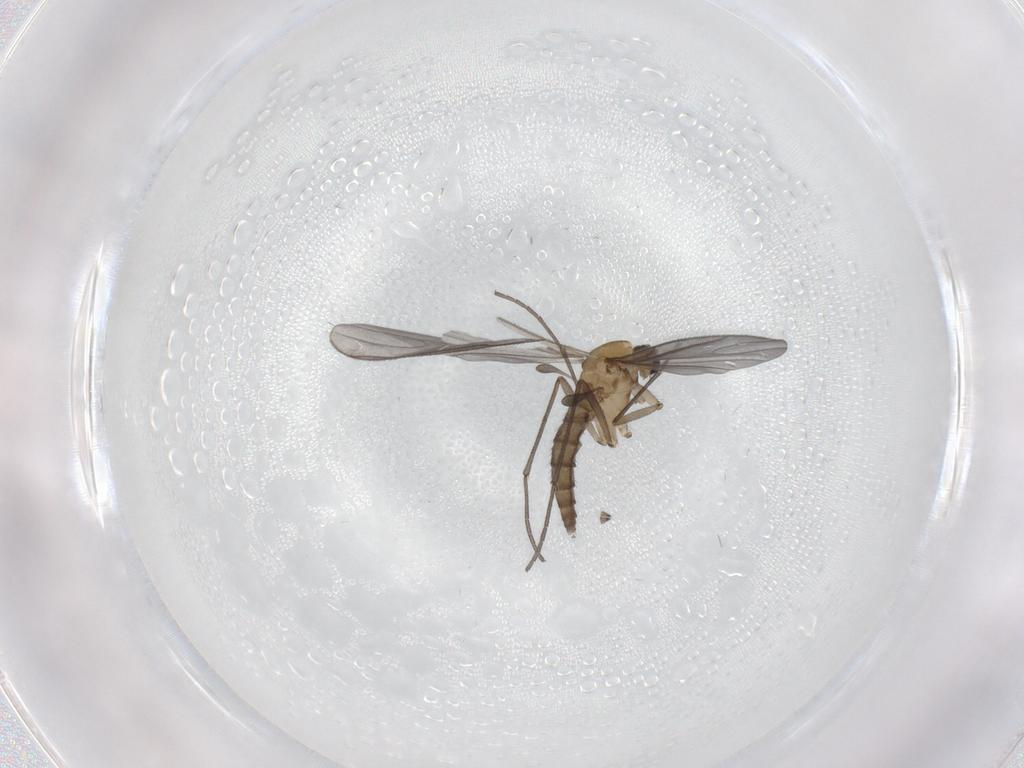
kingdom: Animalia
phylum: Arthropoda
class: Insecta
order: Diptera
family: Sciaridae
